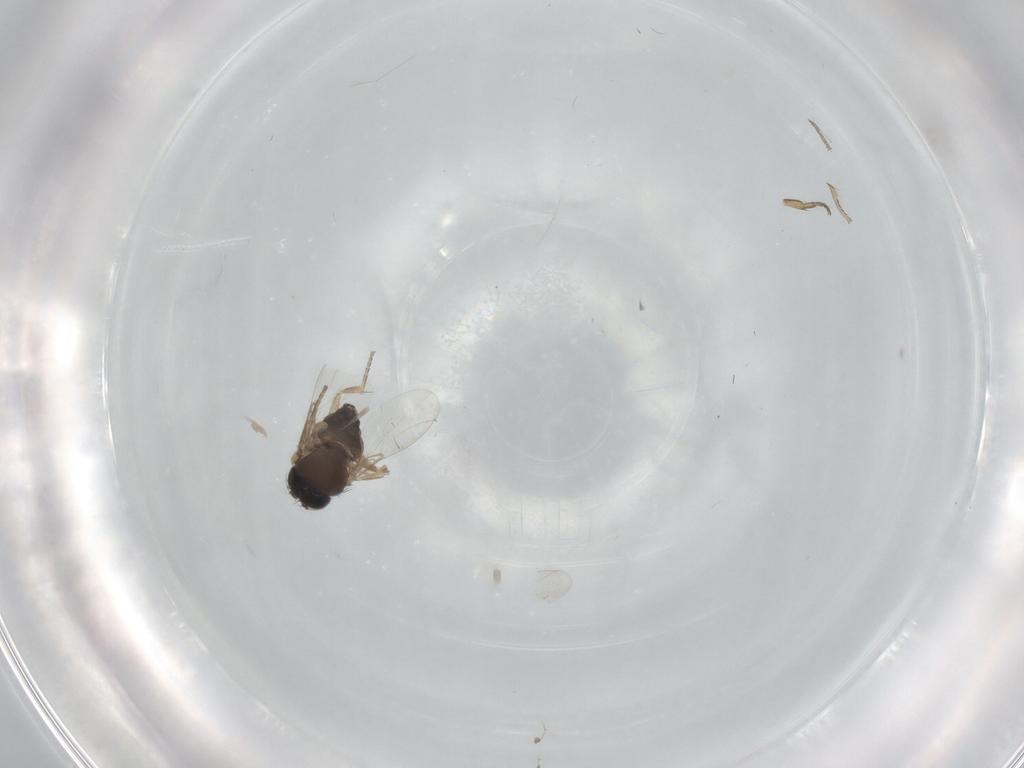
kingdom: Animalia
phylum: Arthropoda
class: Insecta
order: Diptera
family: Phoridae
